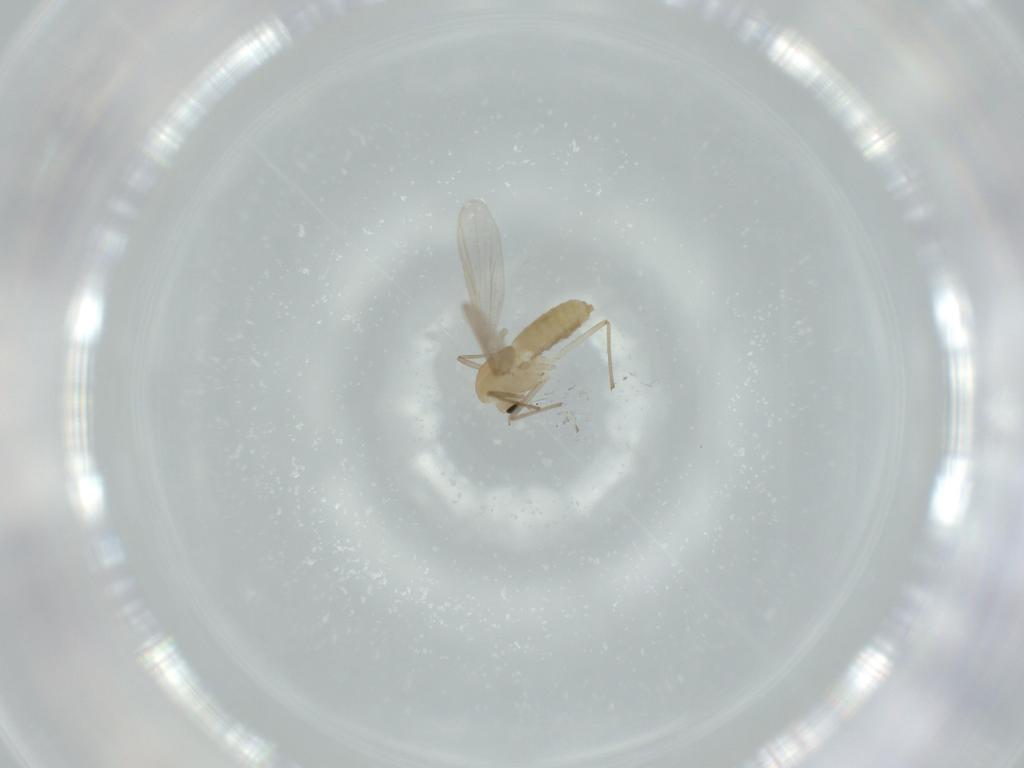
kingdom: Animalia
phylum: Arthropoda
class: Insecta
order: Diptera
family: Chironomidae
